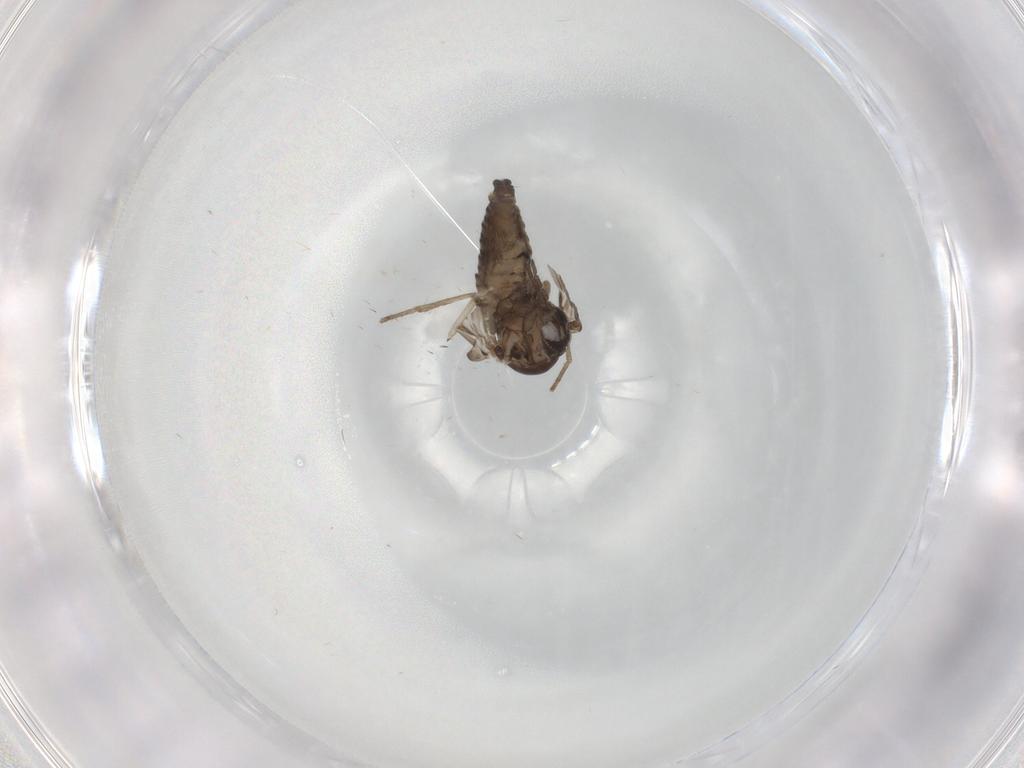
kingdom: Animalia
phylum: Arthropoda
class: Insecta
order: Diptera
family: Psychodidae
